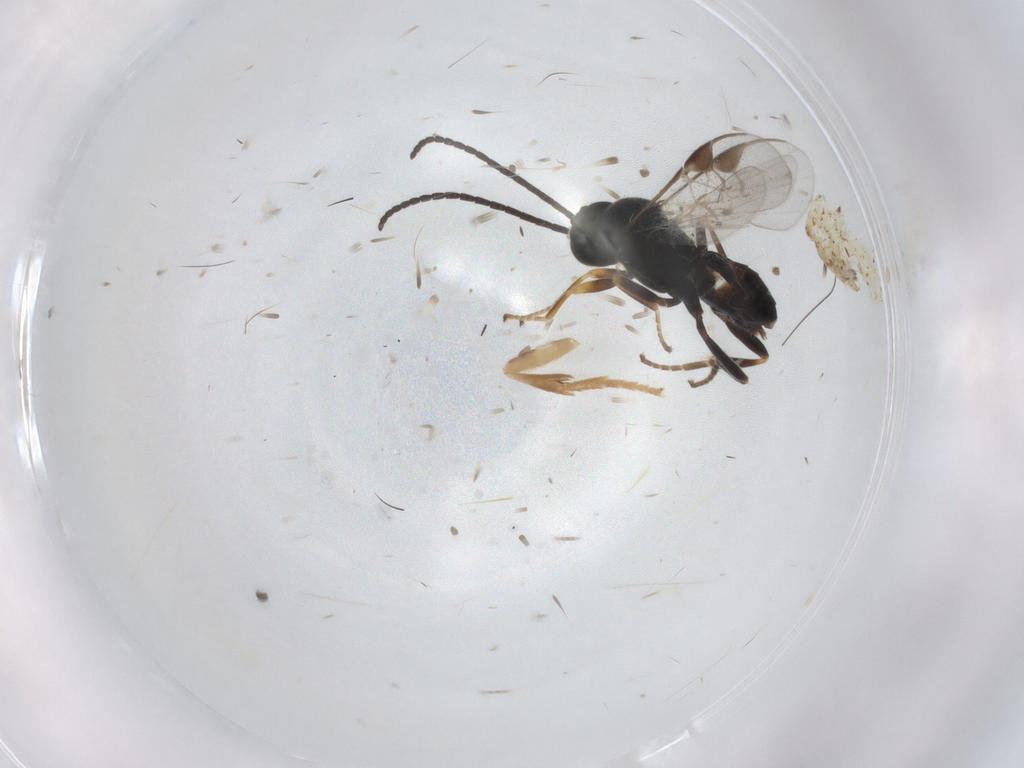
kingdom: Animalia
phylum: Arthropoda
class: Insecta
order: Hymenoptera
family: Braconidae
